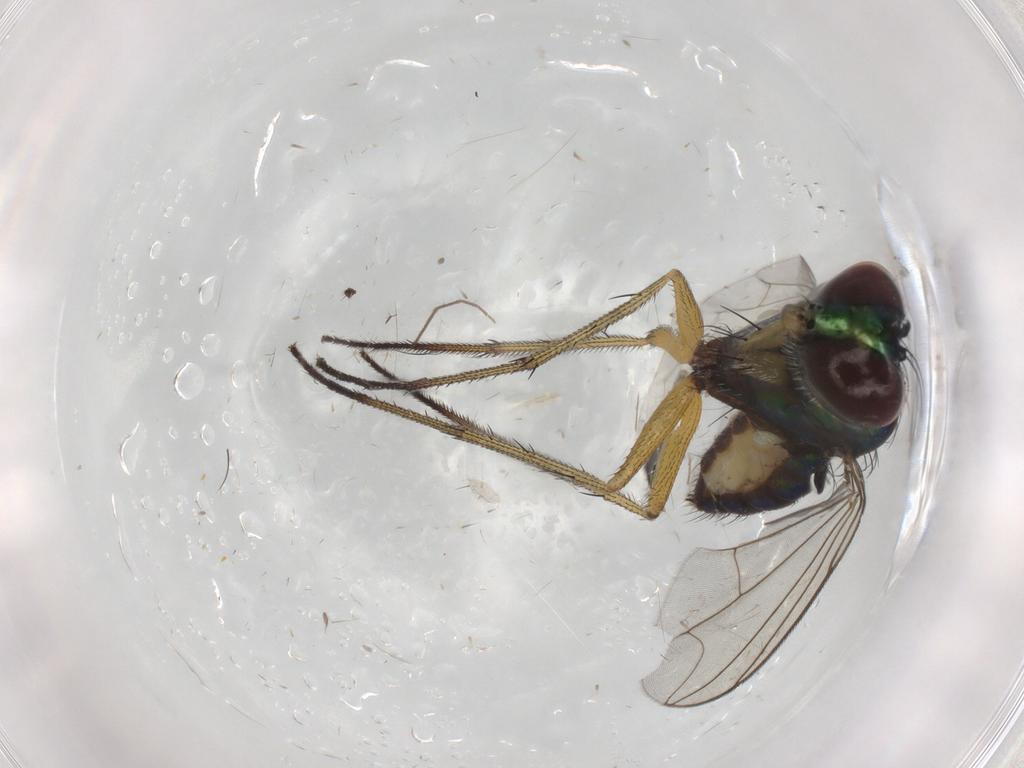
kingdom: Animalia
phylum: Arthropoda
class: Insecta
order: Diptera
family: Dolichopodidae
